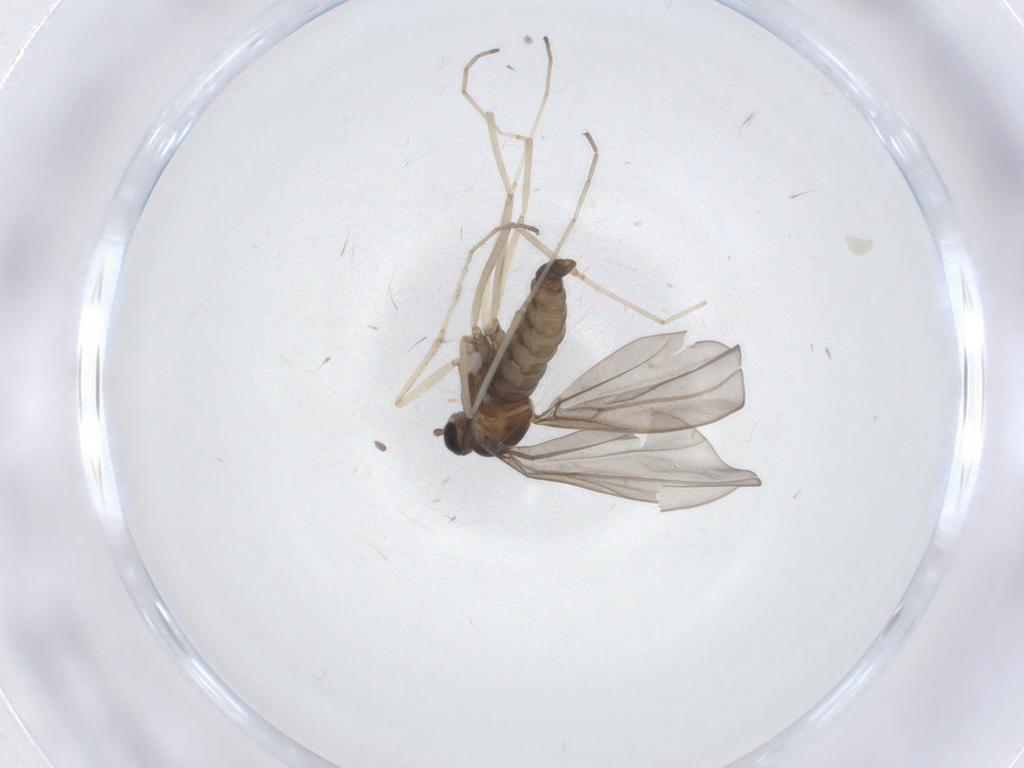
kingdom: Animalia
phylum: Arthropoda
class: Insecta
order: Diptera
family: Cecidomyiidae
